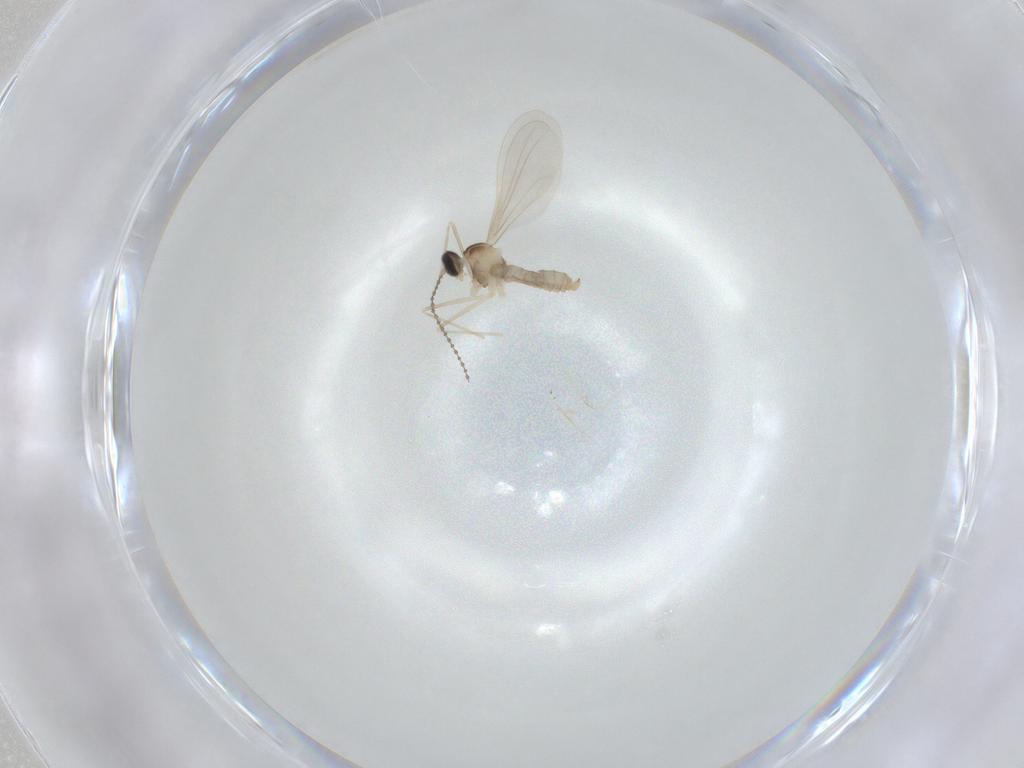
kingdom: Animalia
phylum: Arthropoda
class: Insecta
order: Diptera
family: Cecidomyiidae
